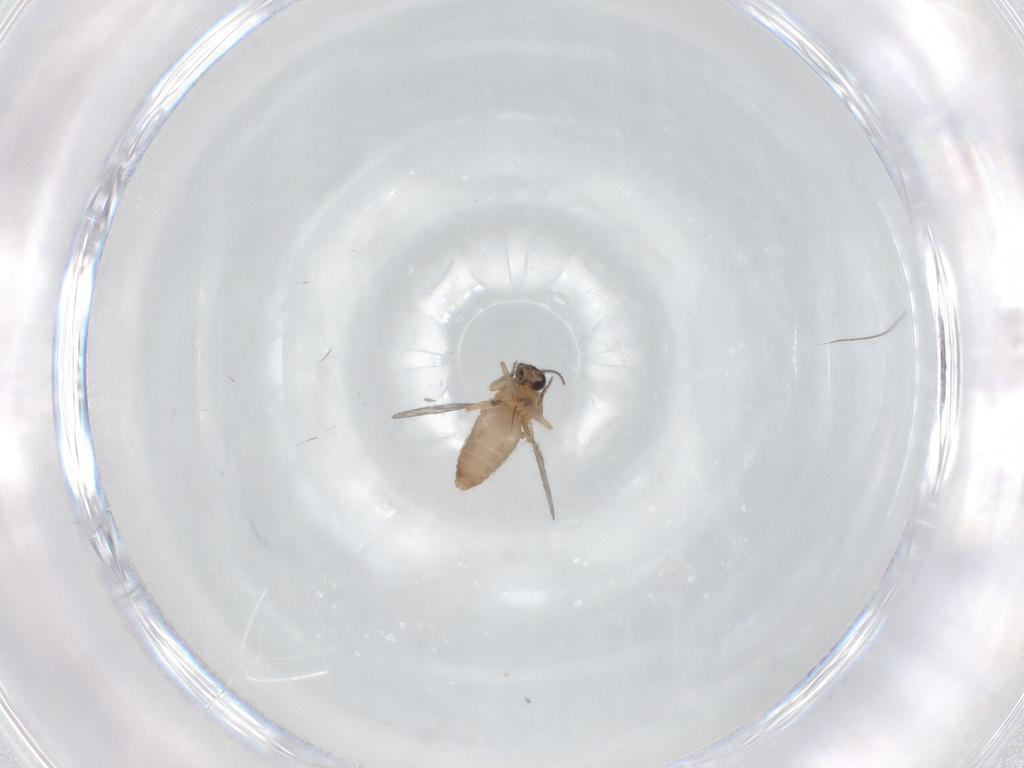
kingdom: Animalia
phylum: Arthropoda
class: Insecta
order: Diptera
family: Ceratopogonidae
